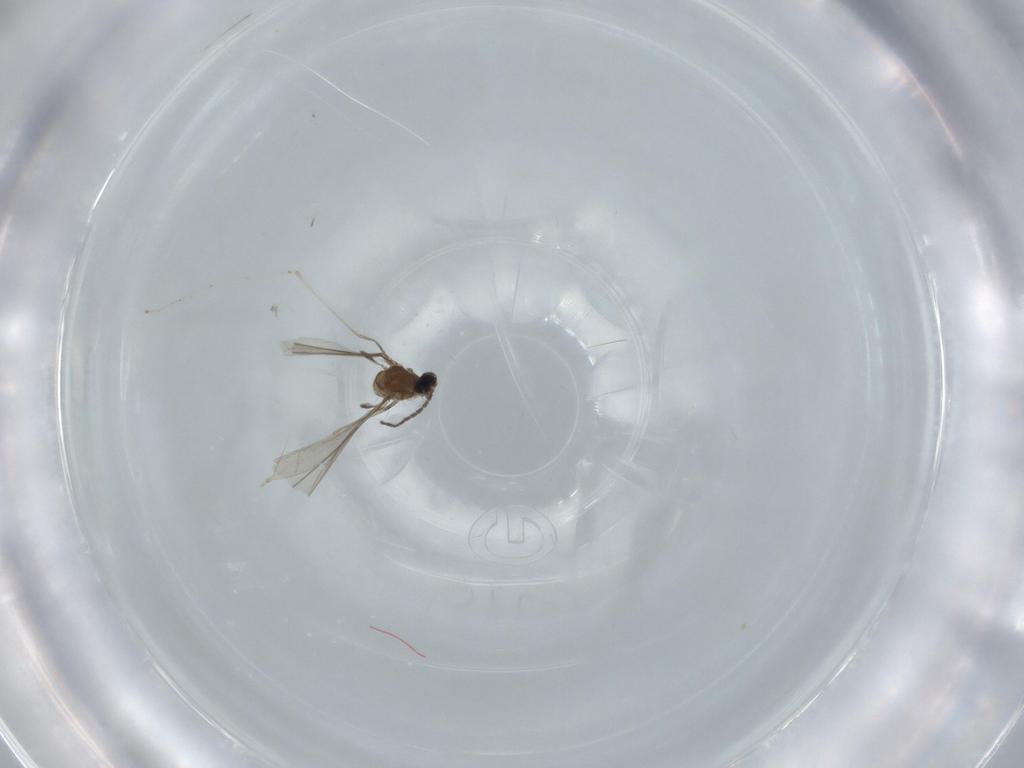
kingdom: Animalia
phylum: Arthropoda
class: Insecta
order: Diptera
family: Cecidomyiidae
